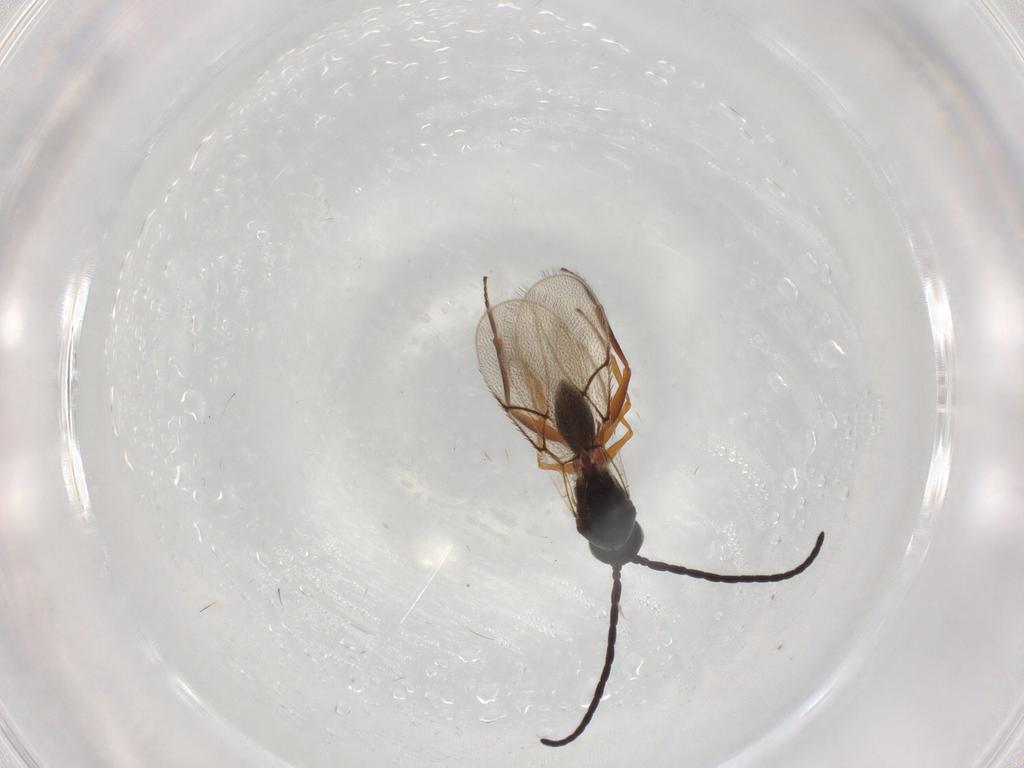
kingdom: Animalia
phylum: Arthropoda
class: Insecta
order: Hymenoptera
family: Figitidae
